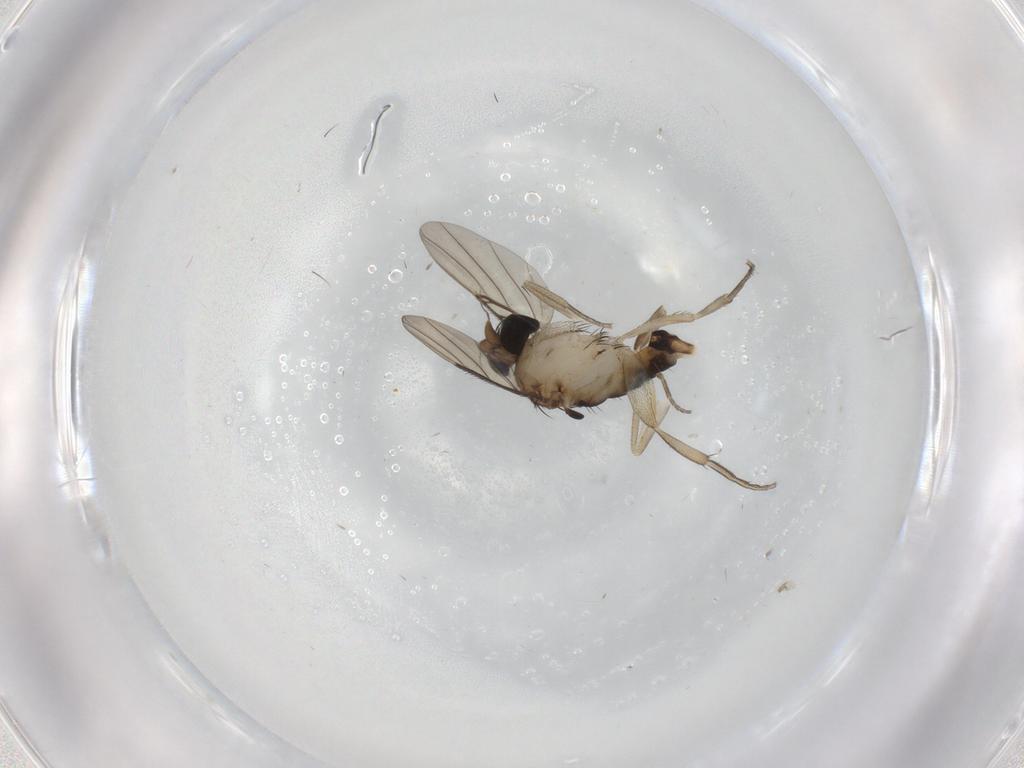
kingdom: Animalia
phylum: Arthropoda
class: Insecta
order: Diptera
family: Phoridae
